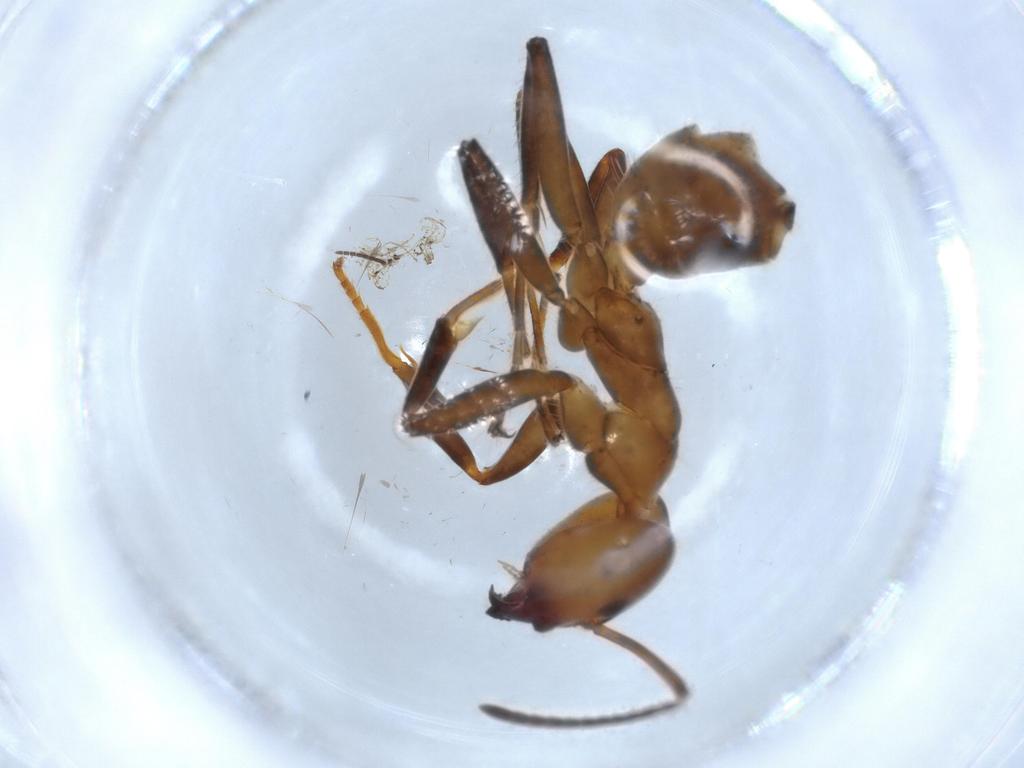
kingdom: Animalia
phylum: Arthropoda
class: Insecta
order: Hymenoptera
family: Formicidae
